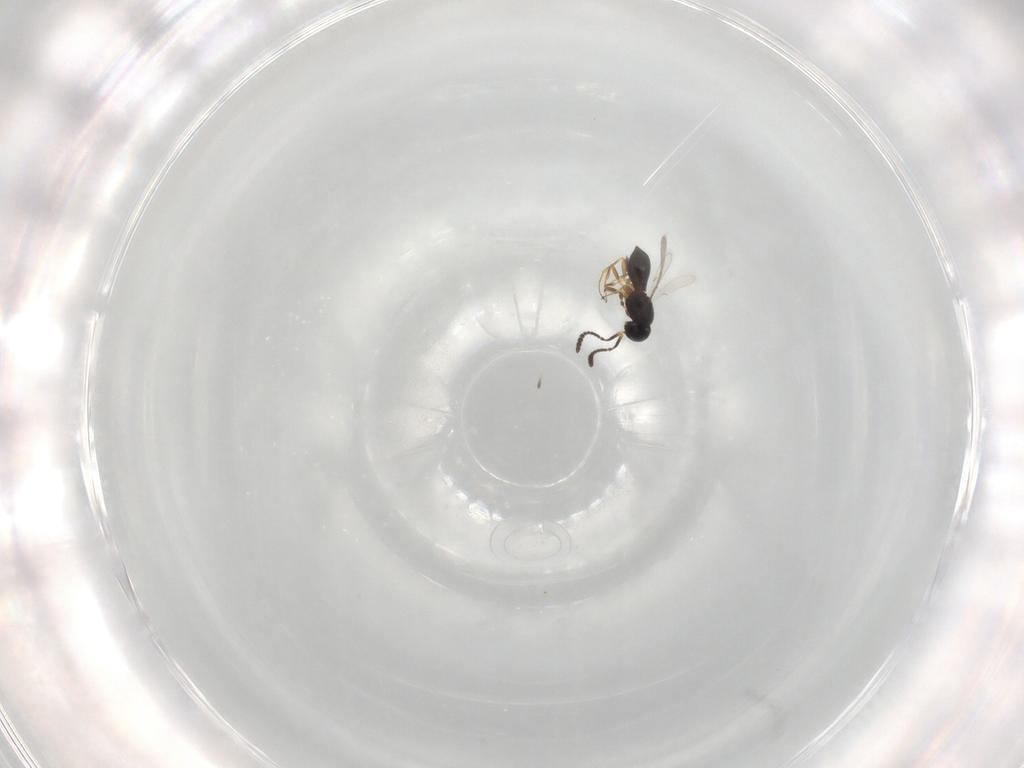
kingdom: Animalia
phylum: Arthropoda
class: Insecta
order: Hymenoptera
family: Scelionidae
